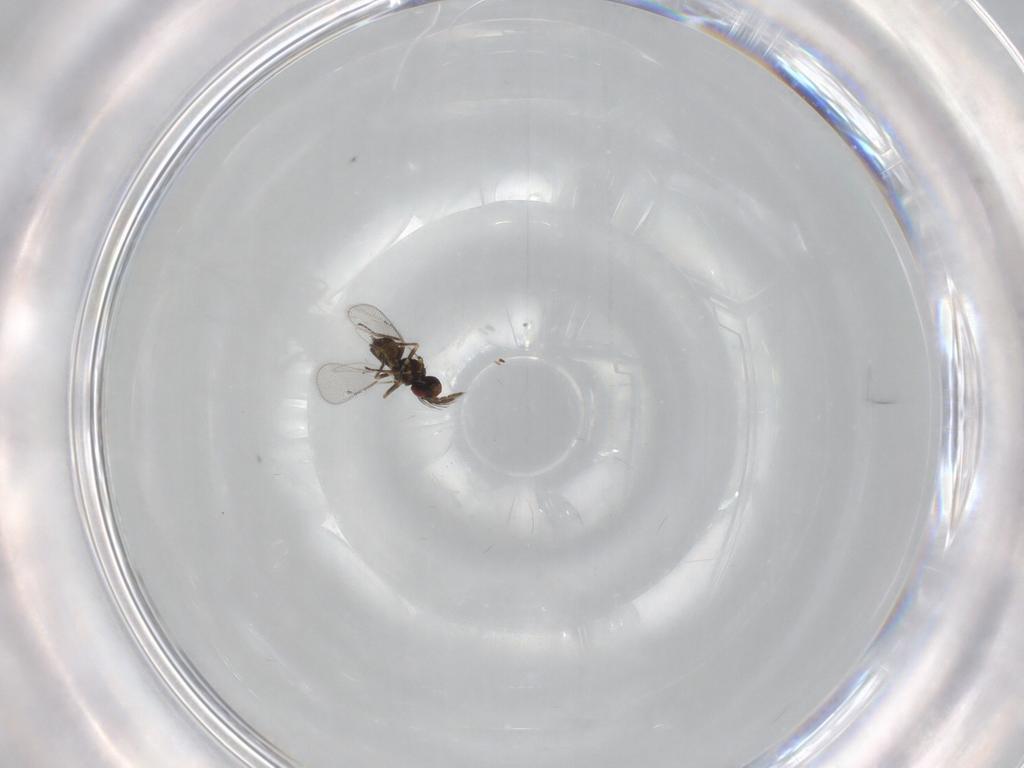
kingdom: Animalia
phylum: Arthropoda
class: Insecta
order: Hymenoptera
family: Eulophidae
